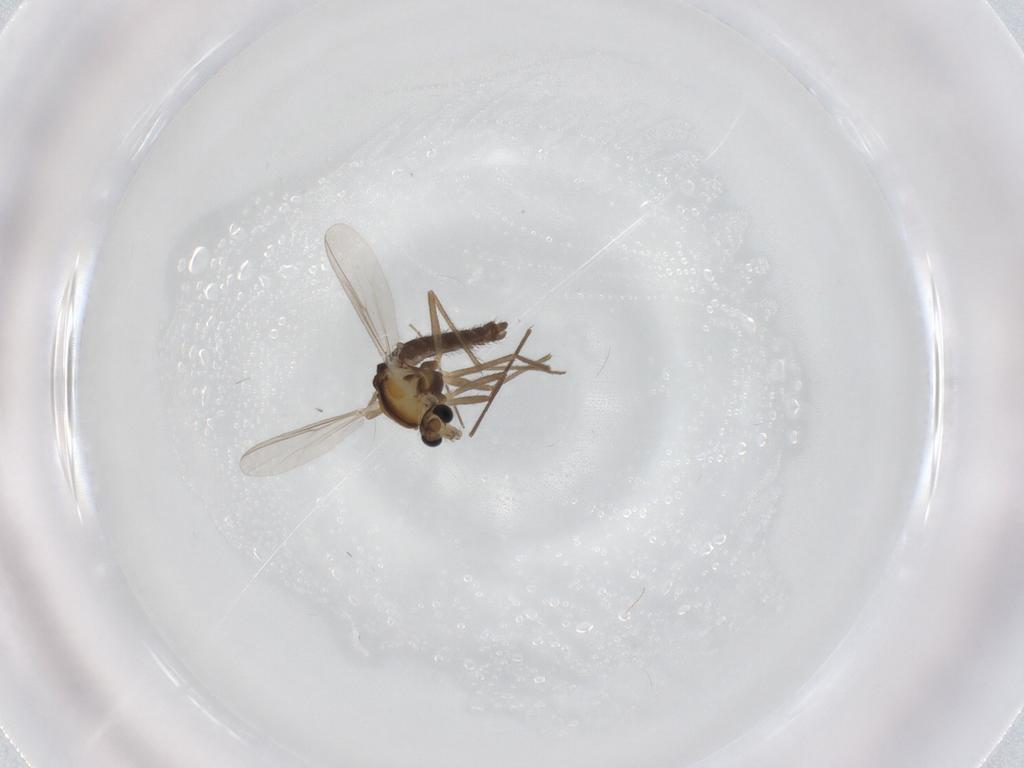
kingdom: Animalia
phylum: Arthropoda
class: Insecta
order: Diptera
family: Chironomidae
